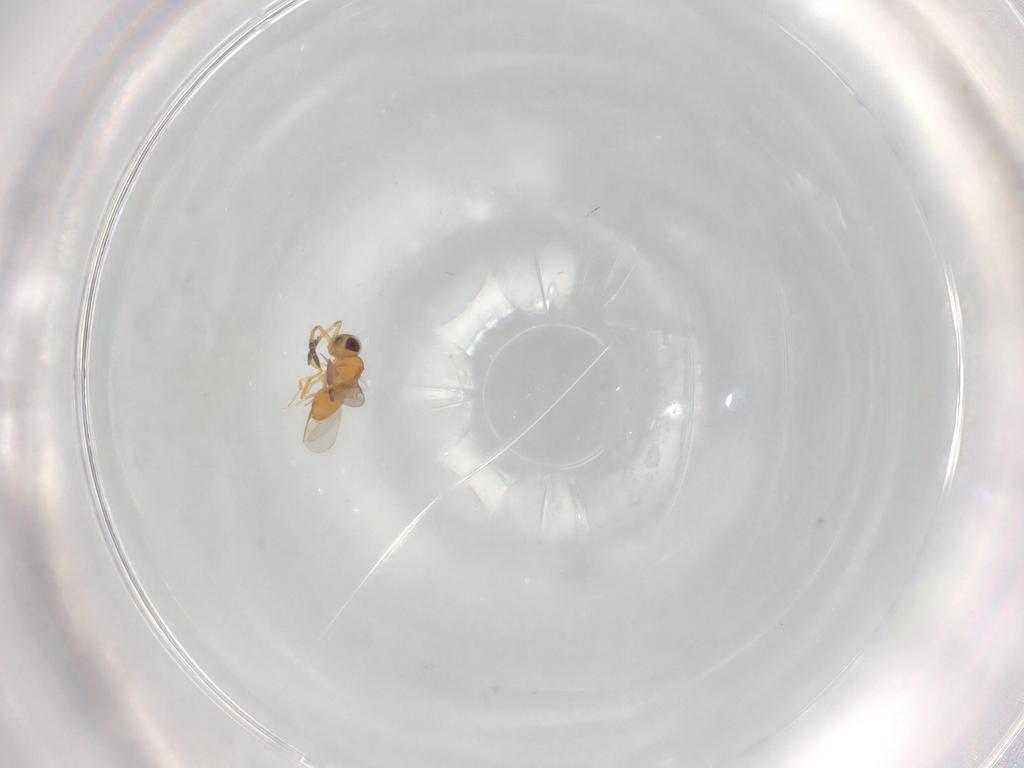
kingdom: Animalia
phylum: Arthropoda
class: Insecta
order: Hymenoptera
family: Ceraphronidae
